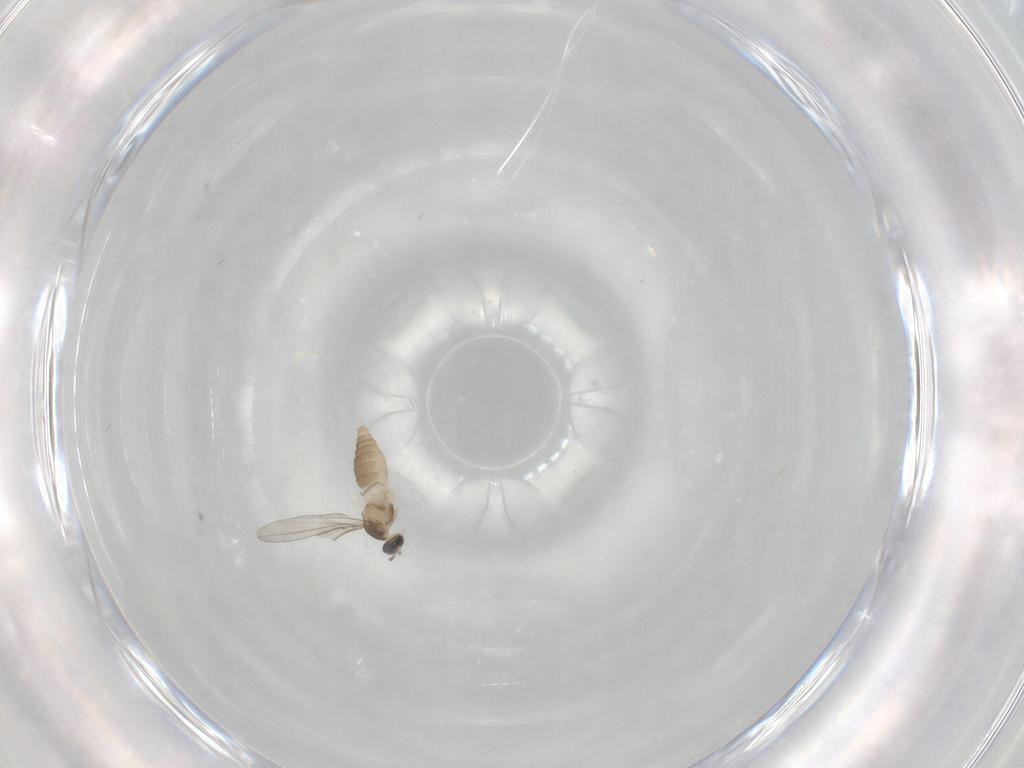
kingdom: Animalia
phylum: Arthropoda
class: Insecta
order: Diptera
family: Cecidomyiidae
